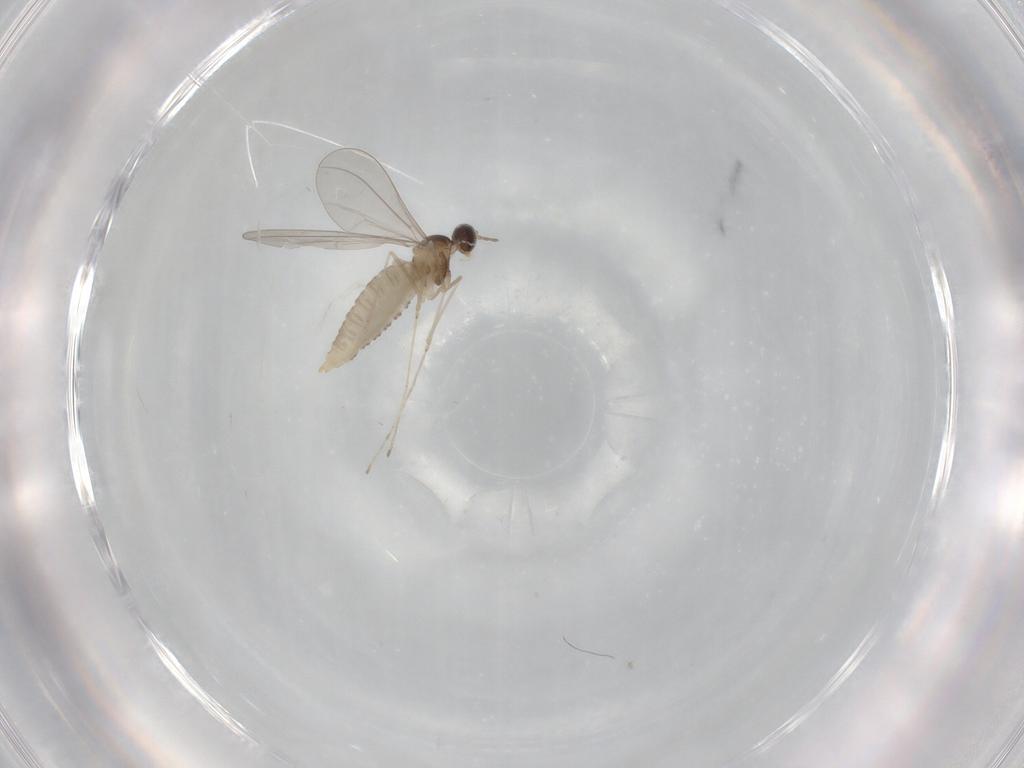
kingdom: Animalia
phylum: Arthropoda
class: Insecta
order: Diptera
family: Cecidomyiidae
